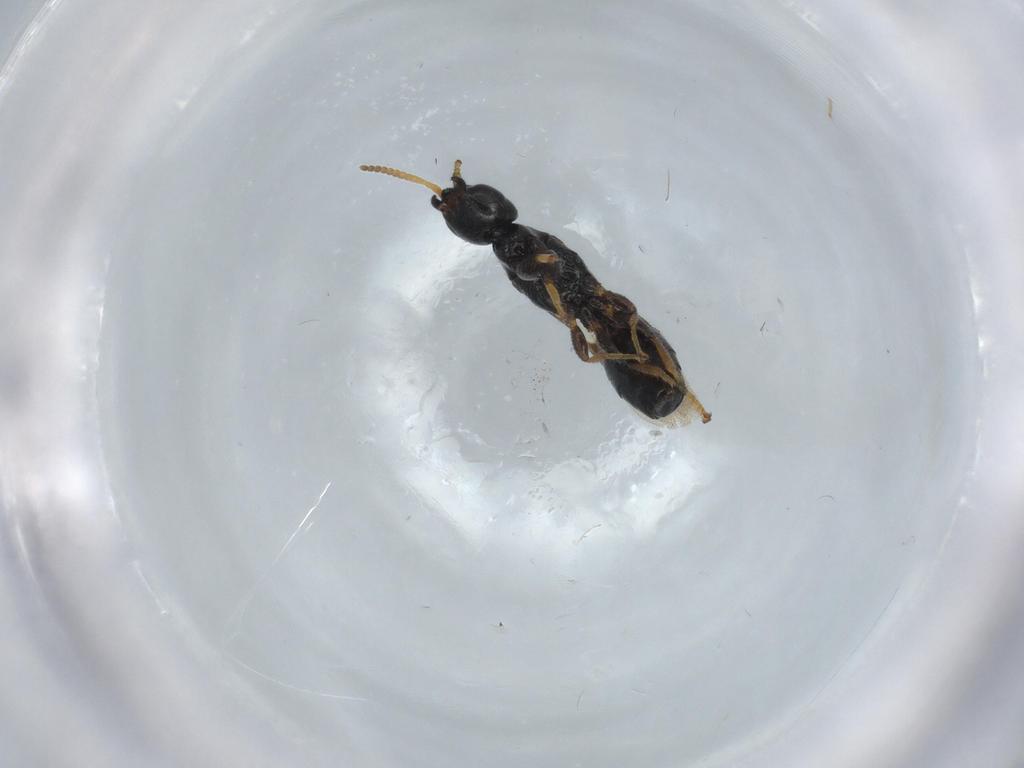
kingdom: Animalia
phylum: Arthropoda
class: Insecta
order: Hymenoptera
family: Bethylidae
